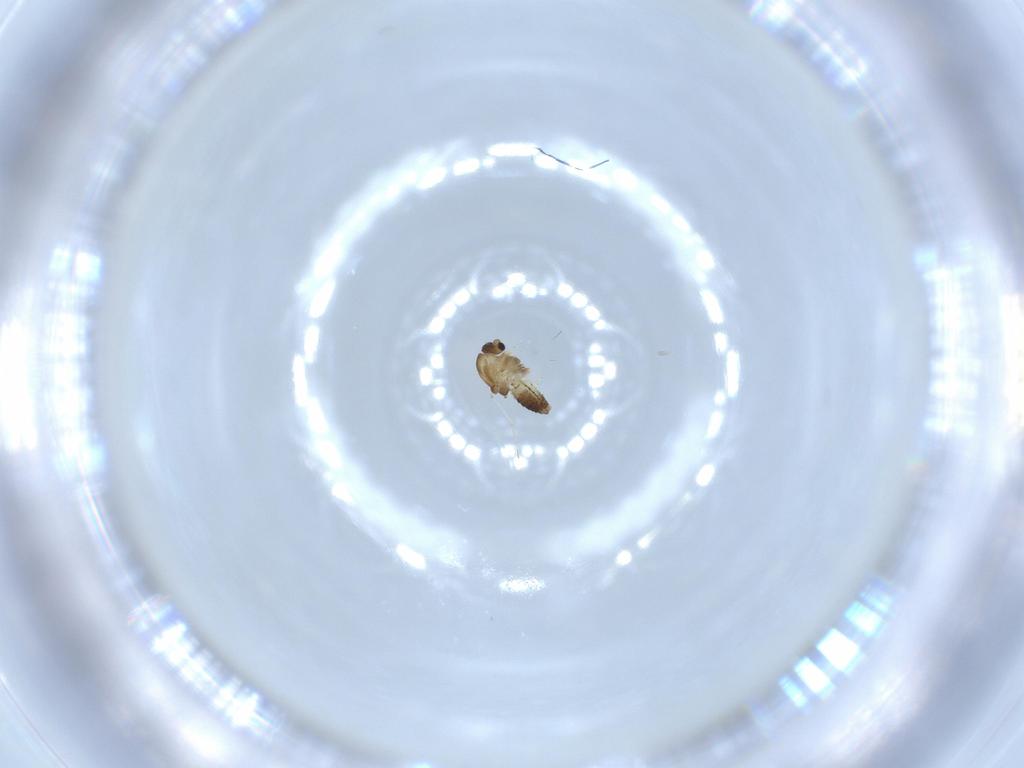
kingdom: Animalia
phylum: Arthropoda
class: Insecta
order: Diptera
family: Chironomidae
